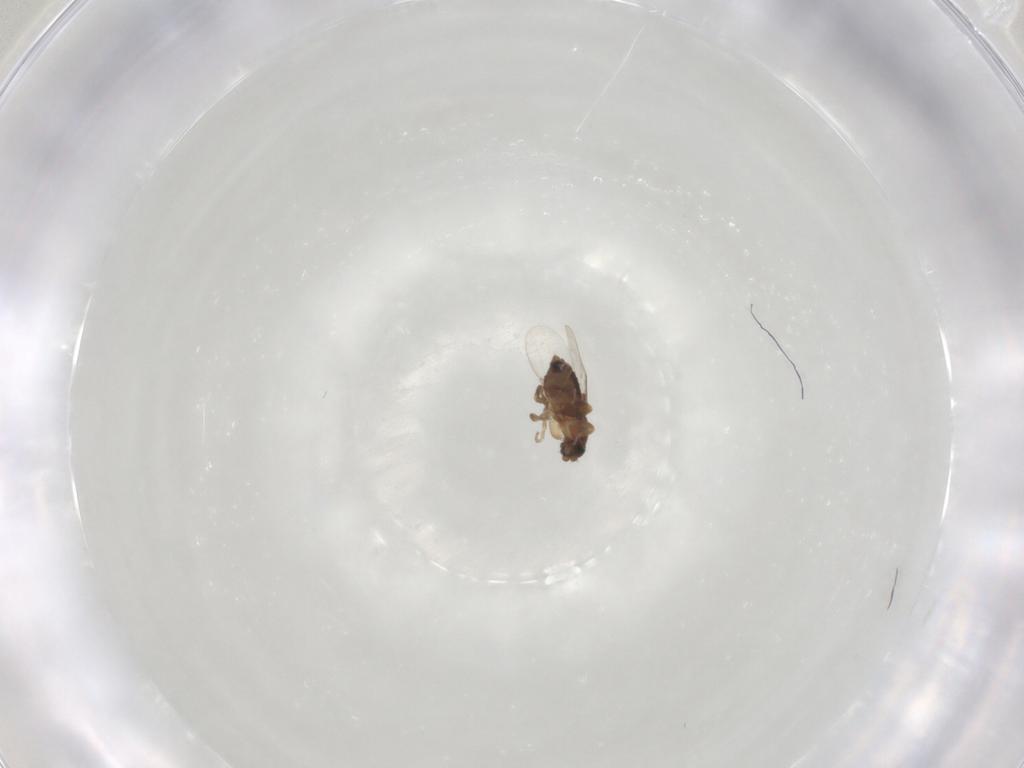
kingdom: Animalia
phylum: Arthropoda
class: Insecta
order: Diptera
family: Phoridae
